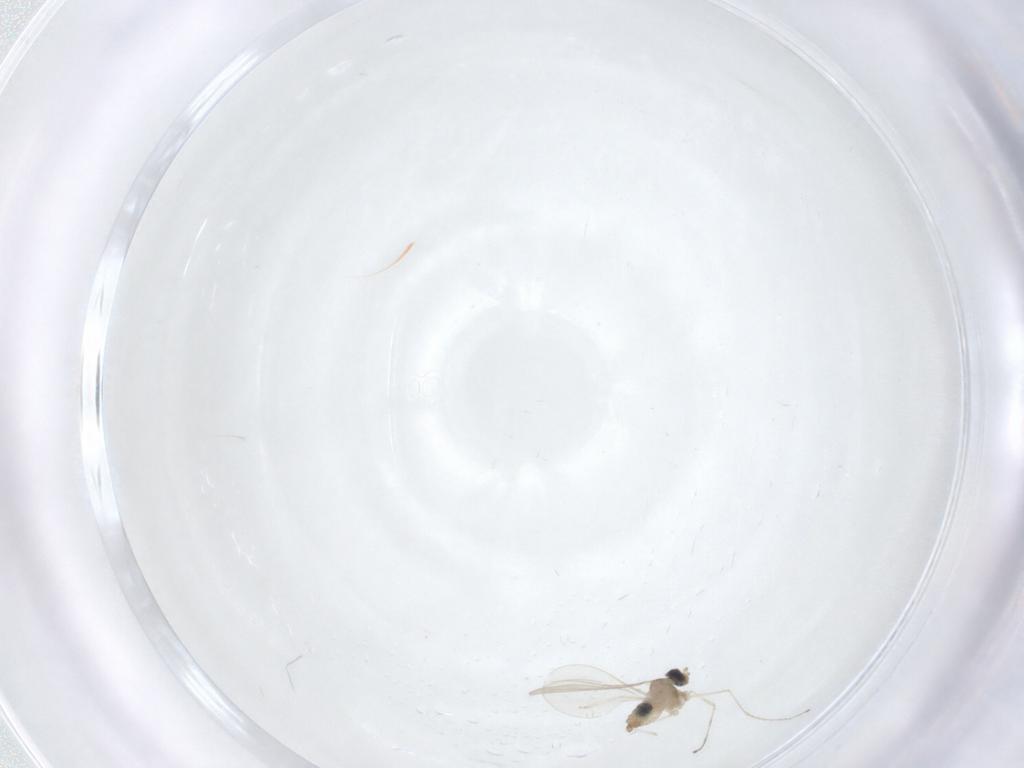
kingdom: Animalia
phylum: Arthropoda
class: Insecta
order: Diptera
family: Cecidomyiidae
